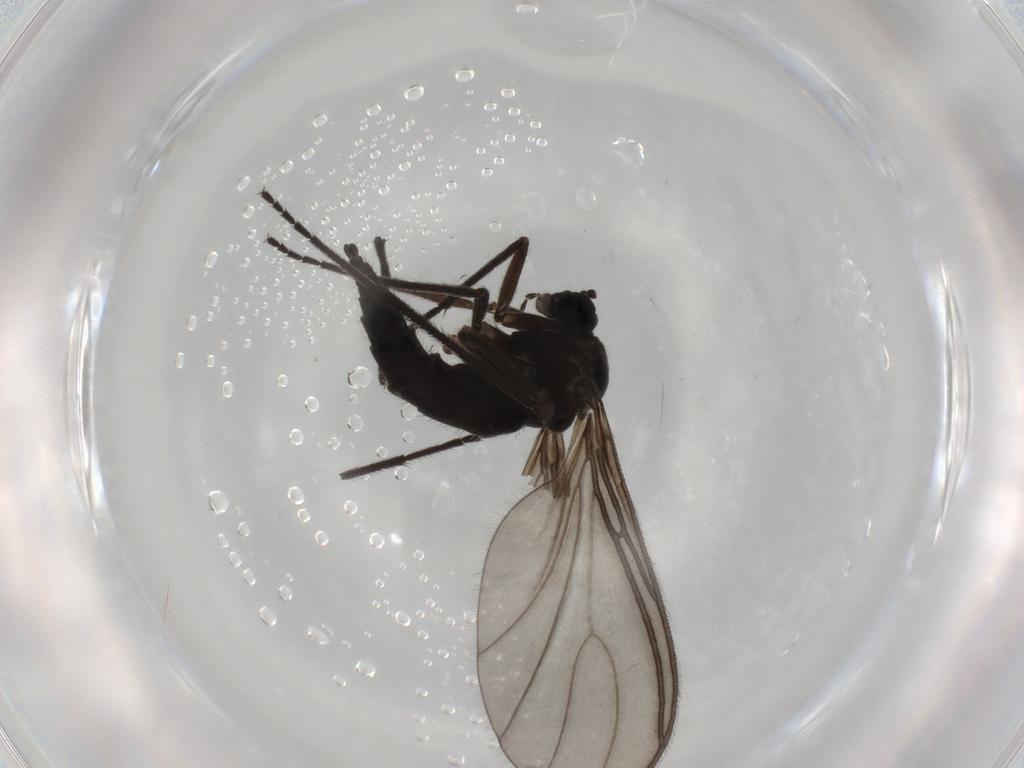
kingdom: Animalia
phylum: Arthropoda
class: Insecta
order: Diptera
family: Sciaridae
